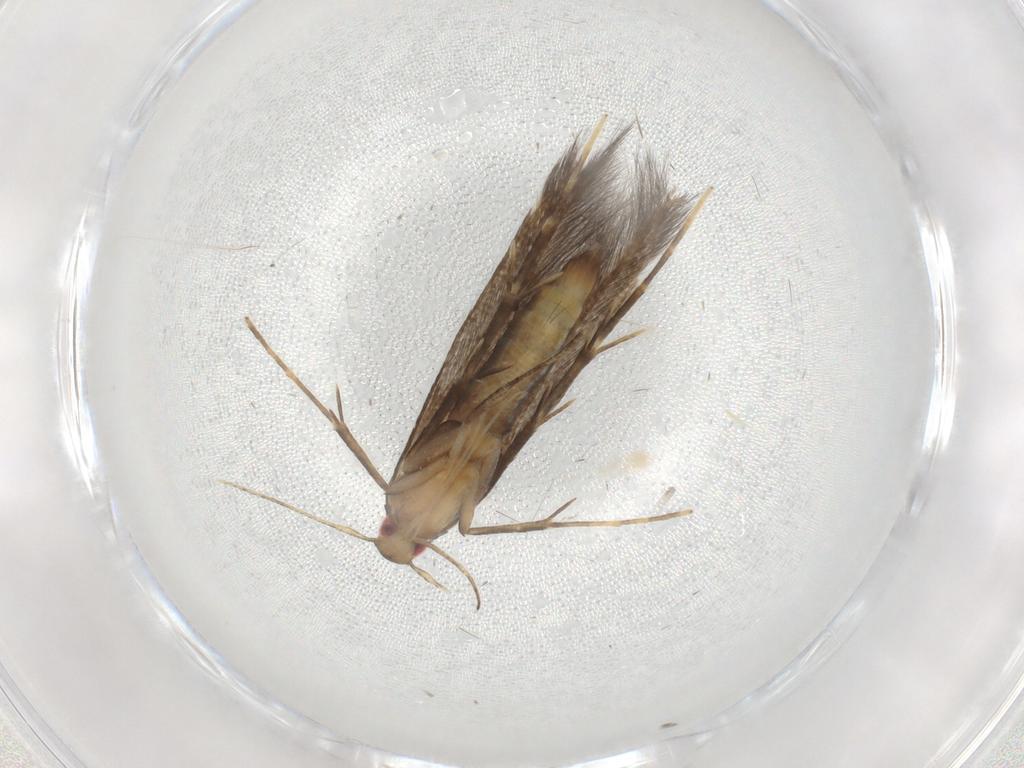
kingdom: Animalia
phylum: Arthropoda
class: Insecta
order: Lepidoptera
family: Cosmopterigidae
